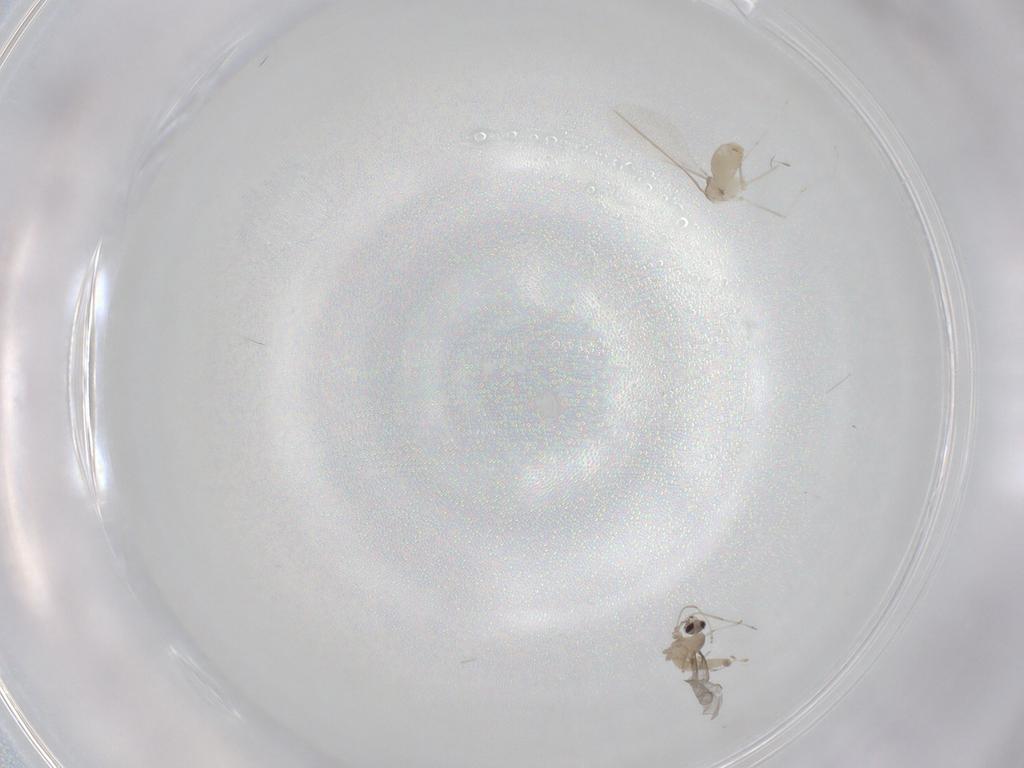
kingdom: Animalia
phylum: Arthropoda
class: Insecta
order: Diptera
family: Cecidomyiidae
